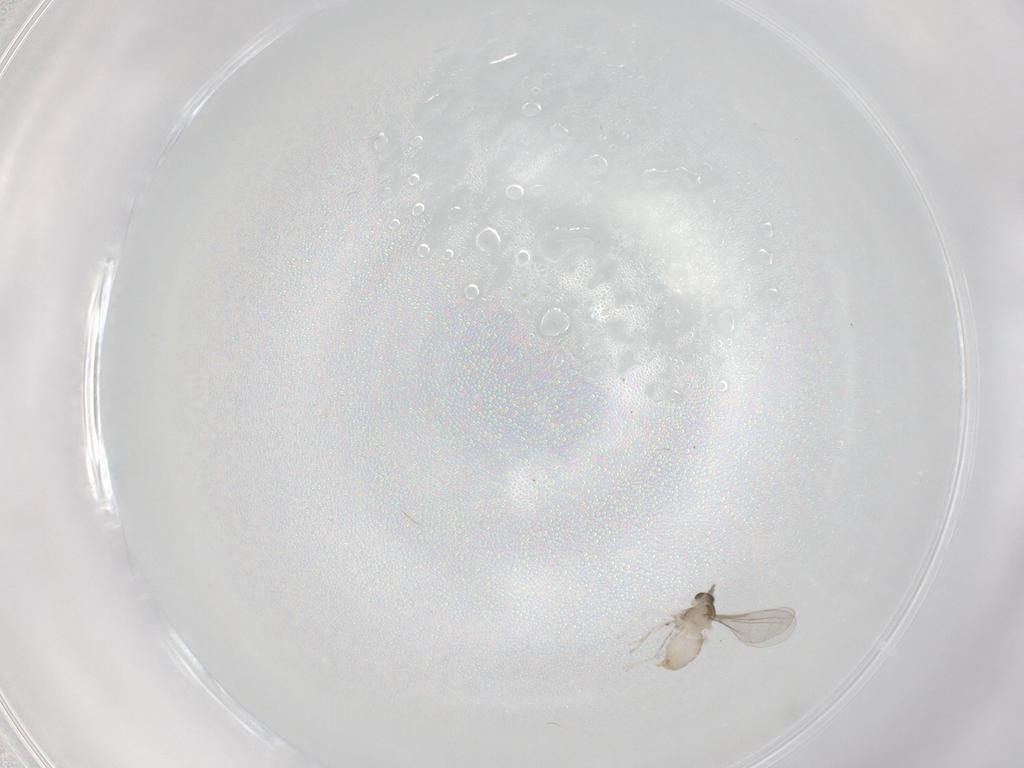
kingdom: Animalia
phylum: Arthropoda
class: Insecta
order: Diptera
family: Cecidomyiidae
